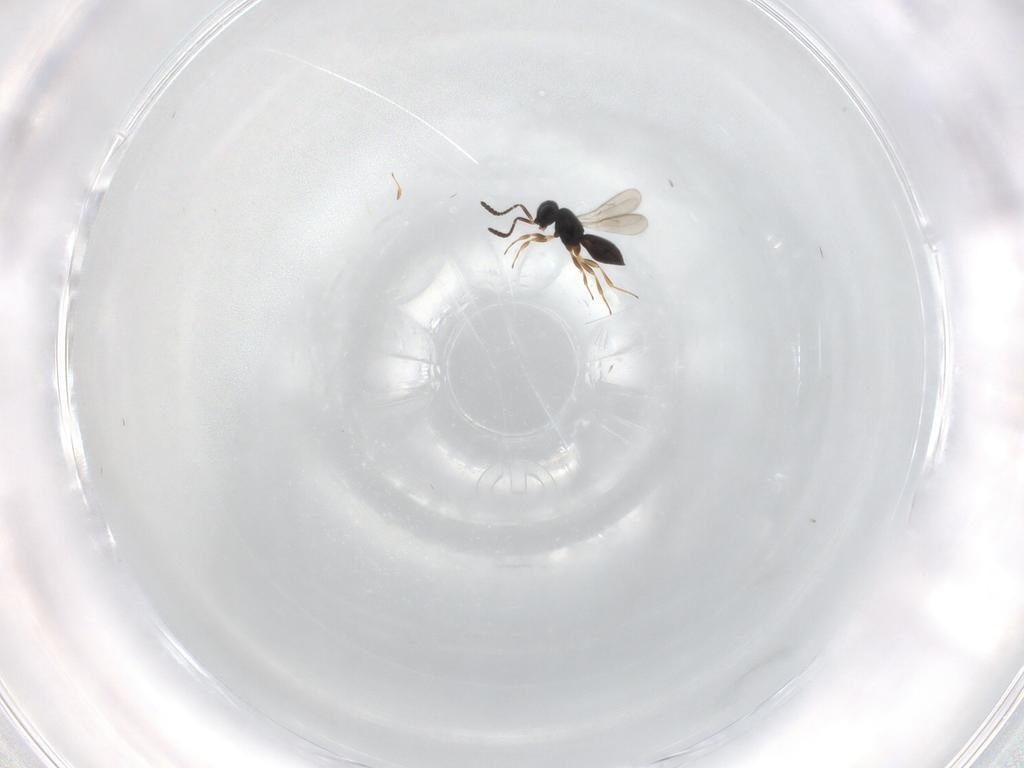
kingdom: Animalia
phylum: Arthropoda
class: Insecta
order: Hymenoptera
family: Scelionidae
